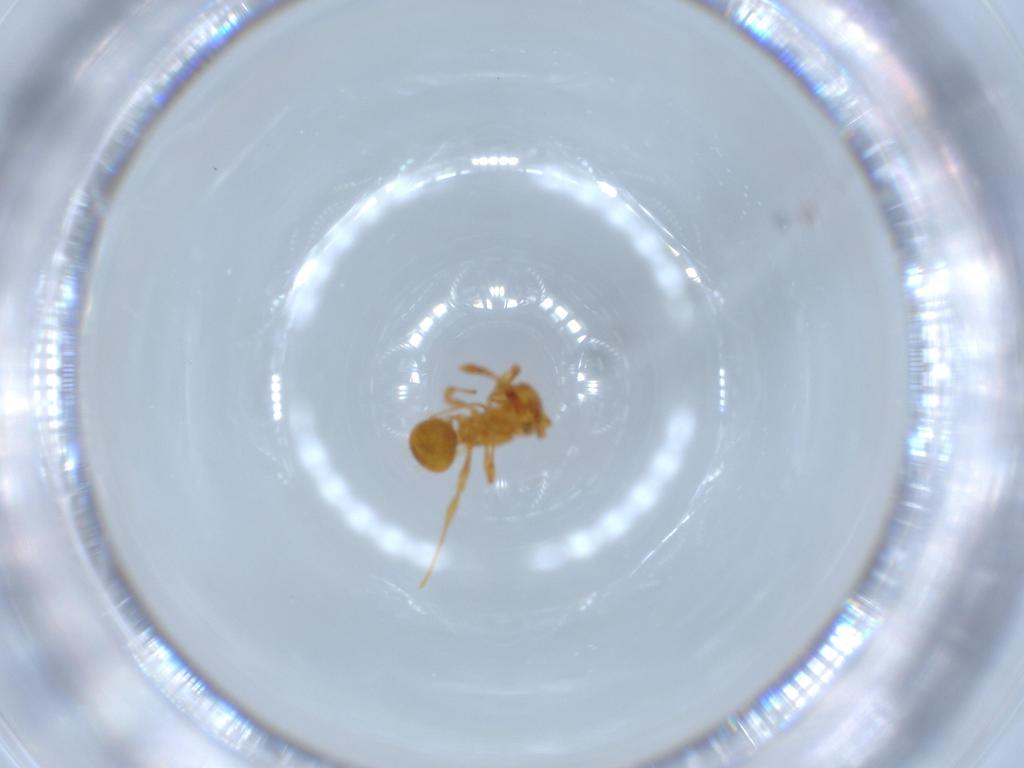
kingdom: Animalia
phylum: Arthropoda
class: Insecta
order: Hymenoptera
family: Formicidae
